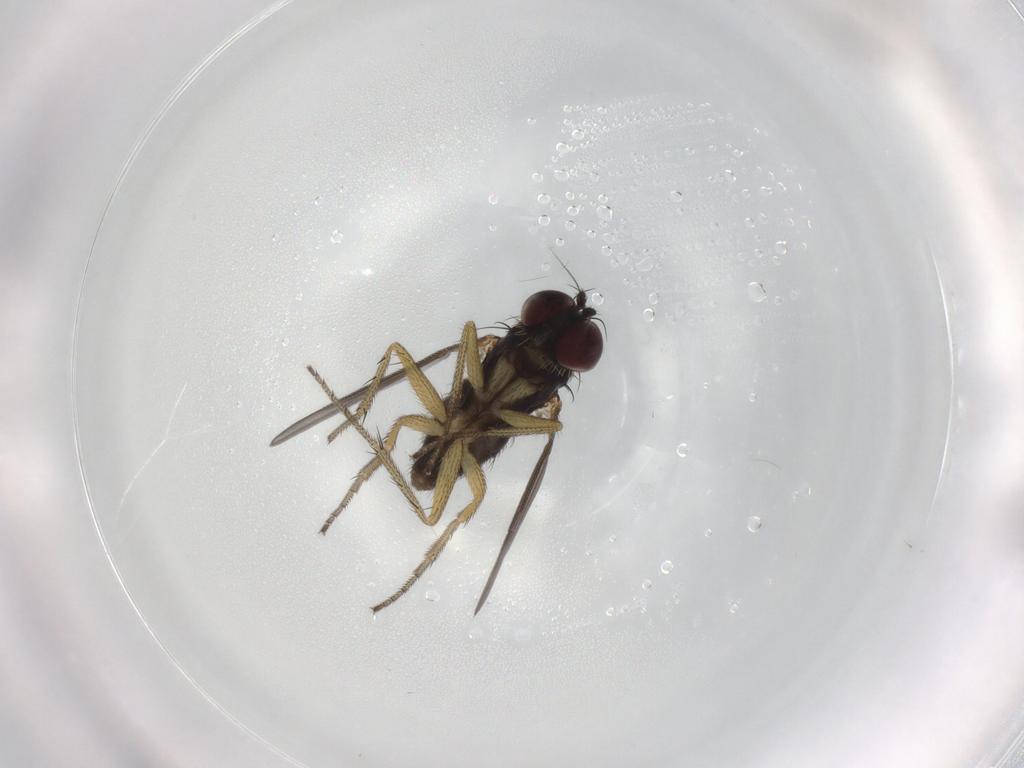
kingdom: Animalia
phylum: Arthropoda
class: Insecta
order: Diptera
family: Dolichopodidae
